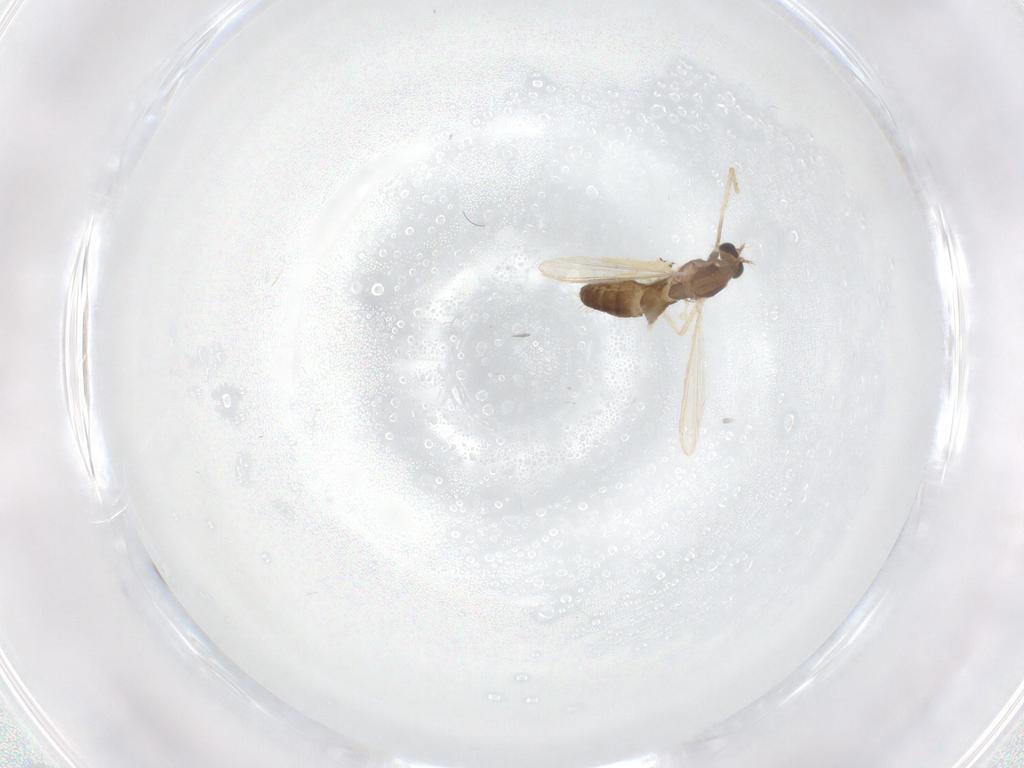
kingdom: Animalia
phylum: Arthropoda
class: Insecta
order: Diptera
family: Chironomidae
